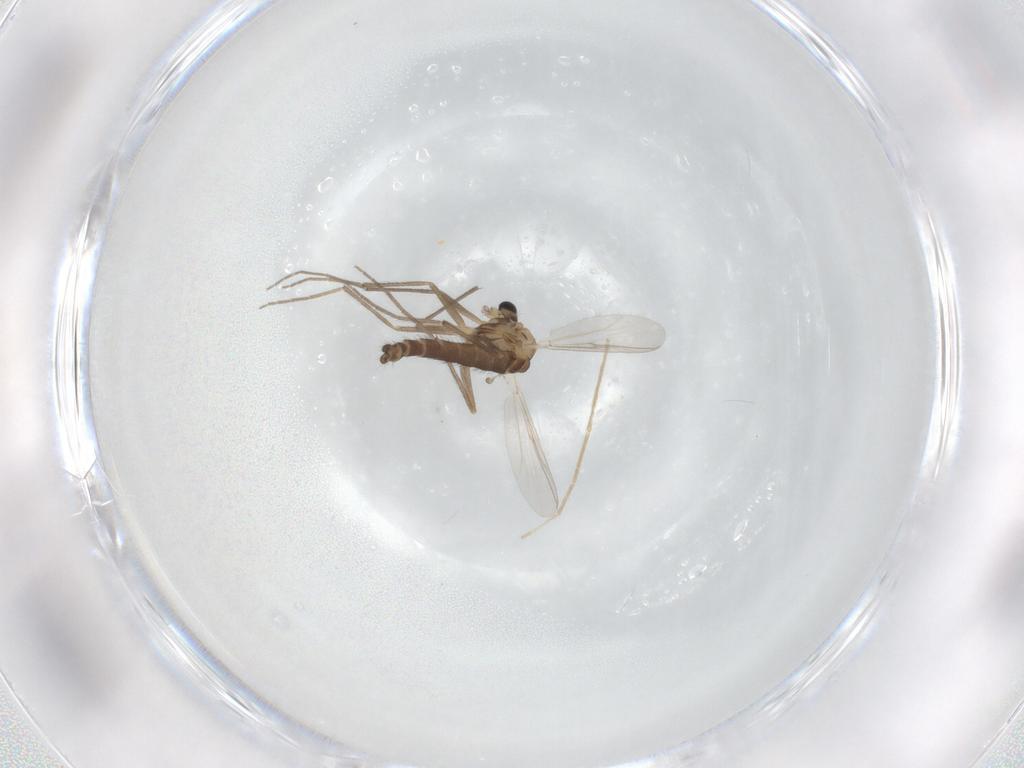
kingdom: Animalia
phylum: Arthropoda
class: Insecta
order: Diptera
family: Chironomidae
